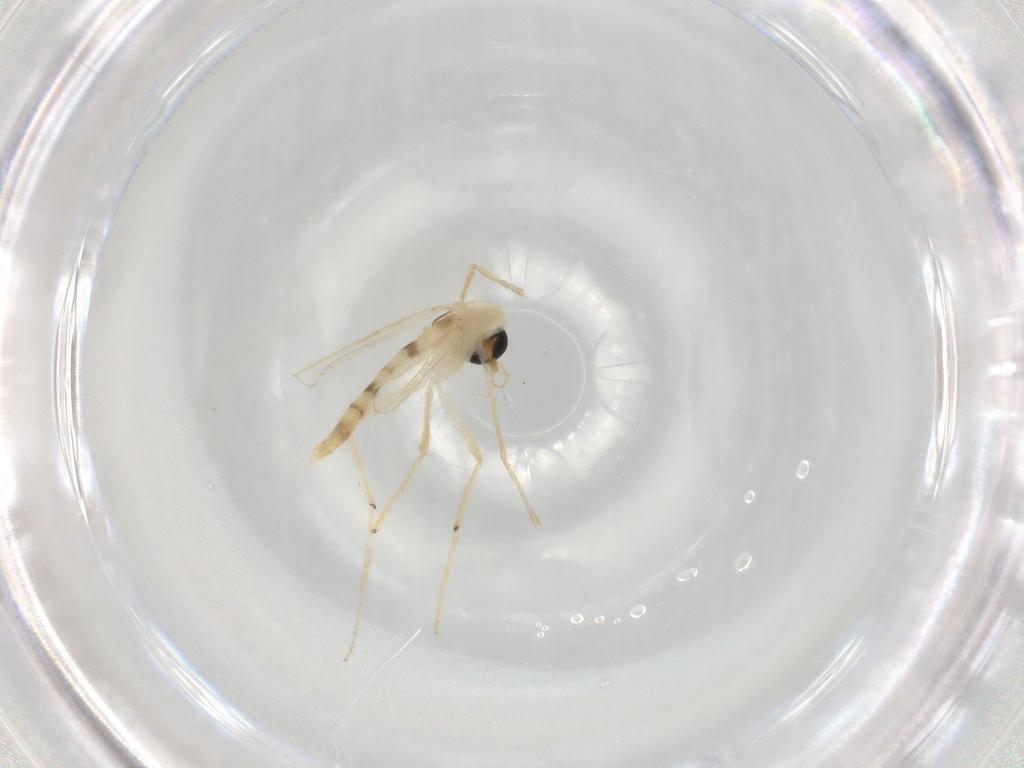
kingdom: Animalia
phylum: Arthropoda
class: Insecta
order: Diptera
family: Chironomidae
